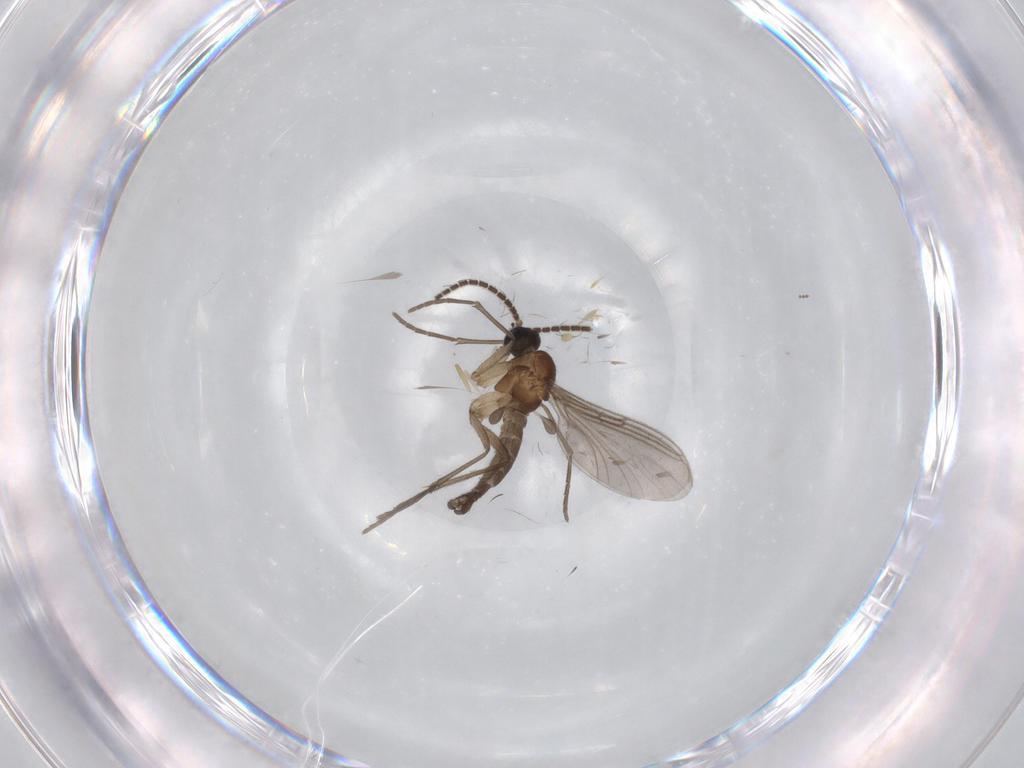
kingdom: Animalia
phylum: Arthropoda
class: Insecta
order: Diptera
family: Sciaridae
